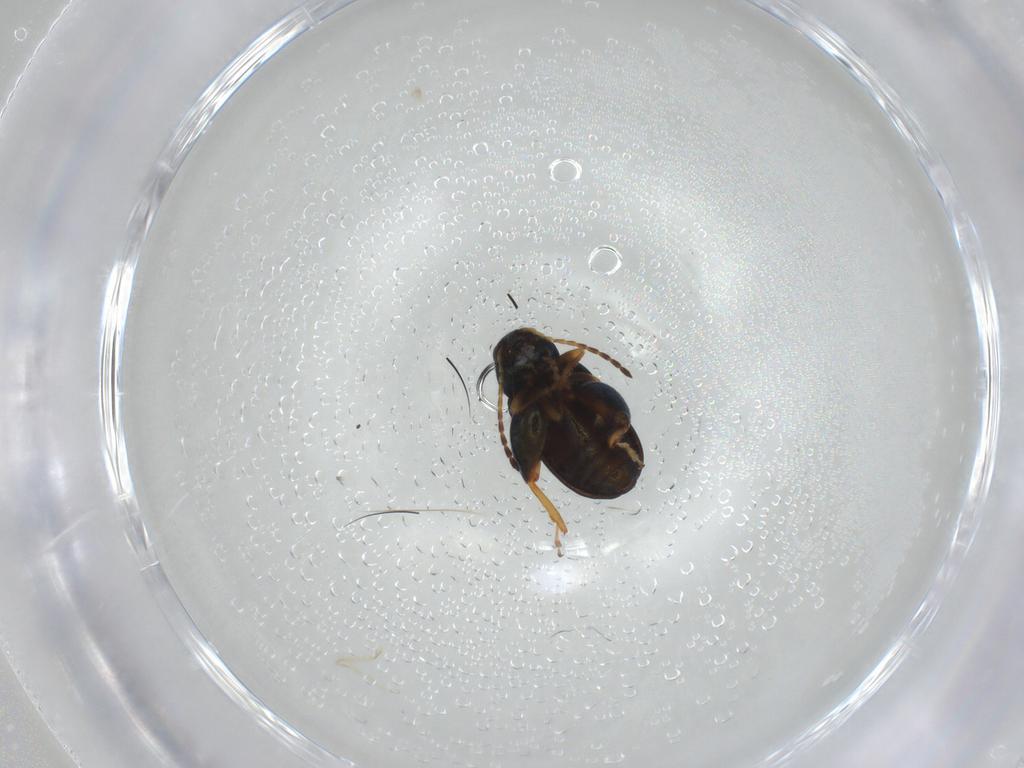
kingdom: Animalia
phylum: Arthropoda
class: Insecta
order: Coleoptera
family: Chrysomelidae
